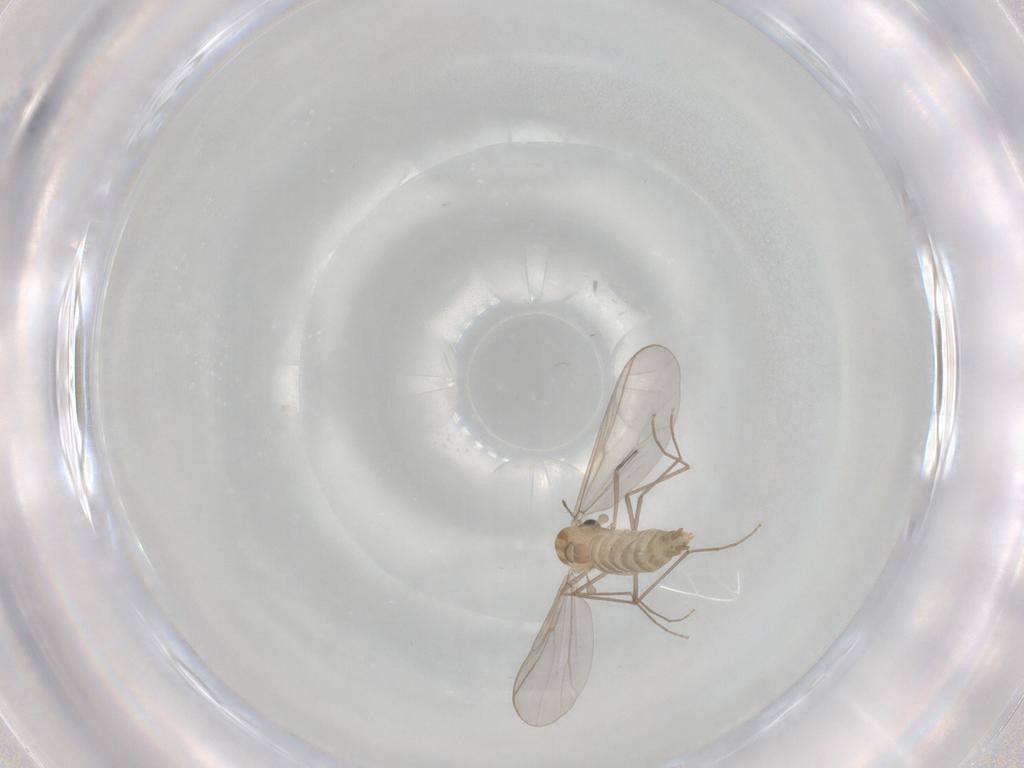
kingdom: Animalia
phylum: Arthropoda
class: Insecta
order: Diptera
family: Chironomidae
